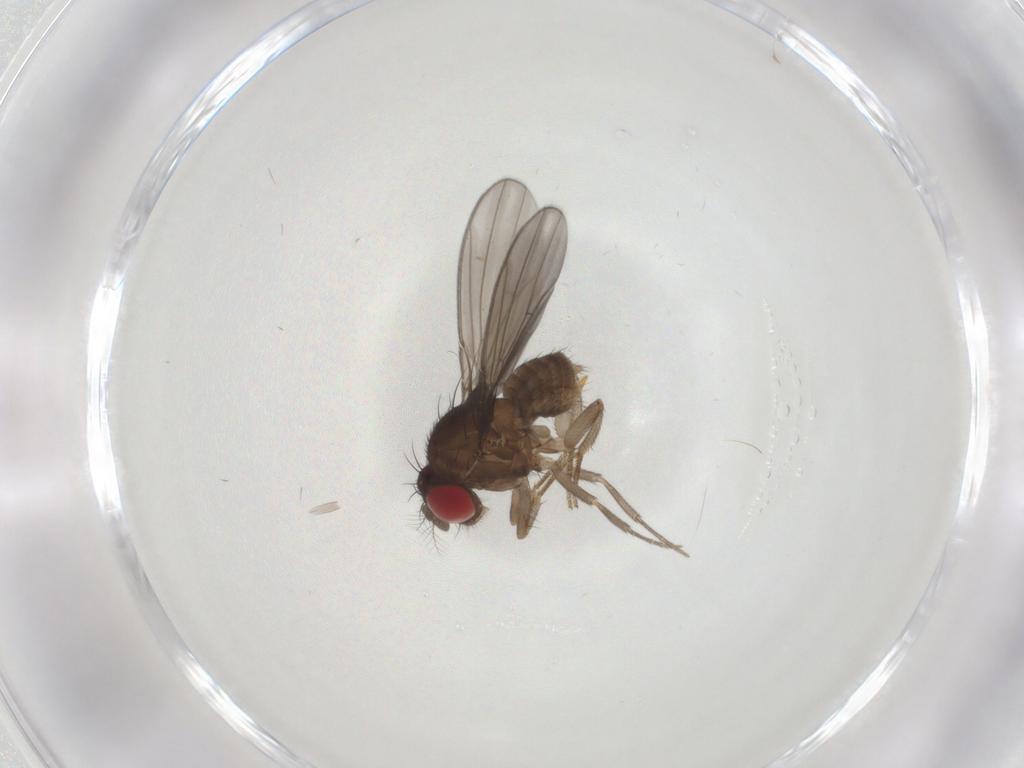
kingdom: Animalia
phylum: Arthropoda
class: Insecta
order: Diptera
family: Drosophilidae
